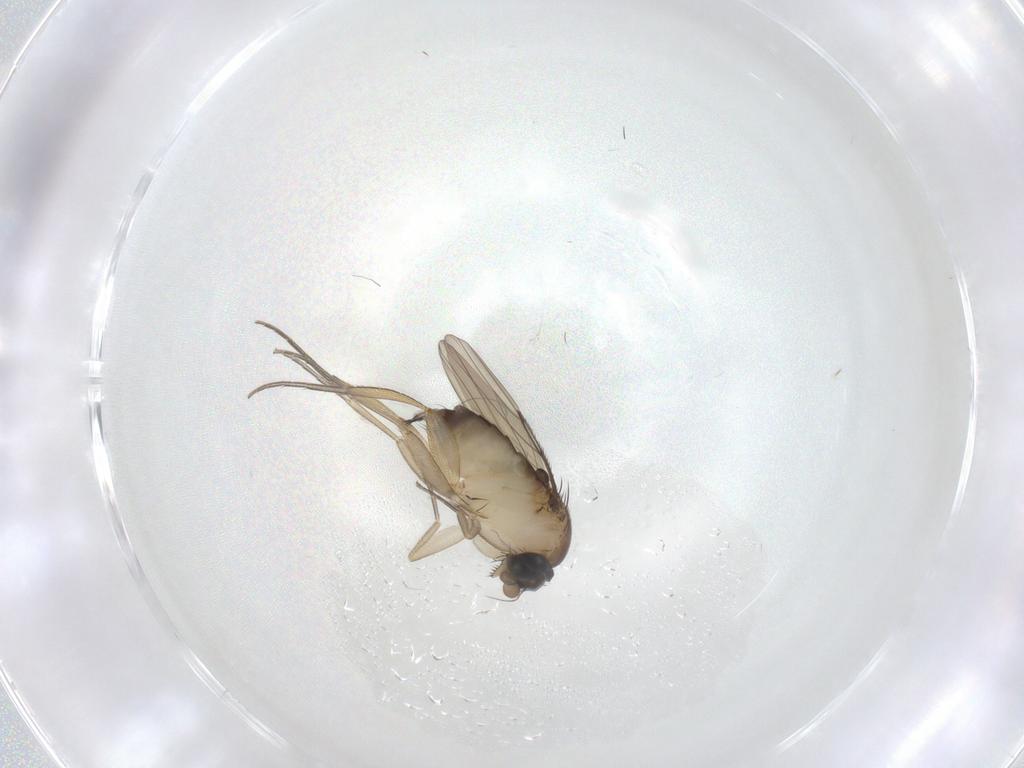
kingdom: Animalia
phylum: Arthropoda
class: Insecta
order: Diptera
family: Phoridae
